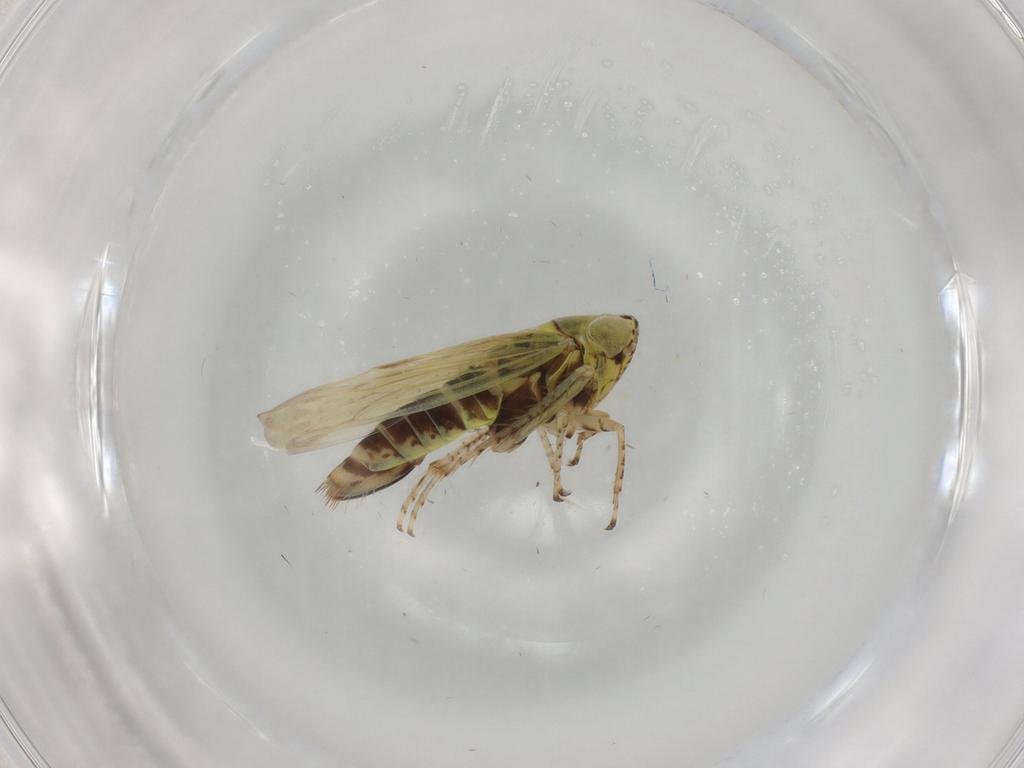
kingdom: Animalia
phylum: Arthropoda
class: Insecta
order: Hemiptera
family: Cicadellidae
